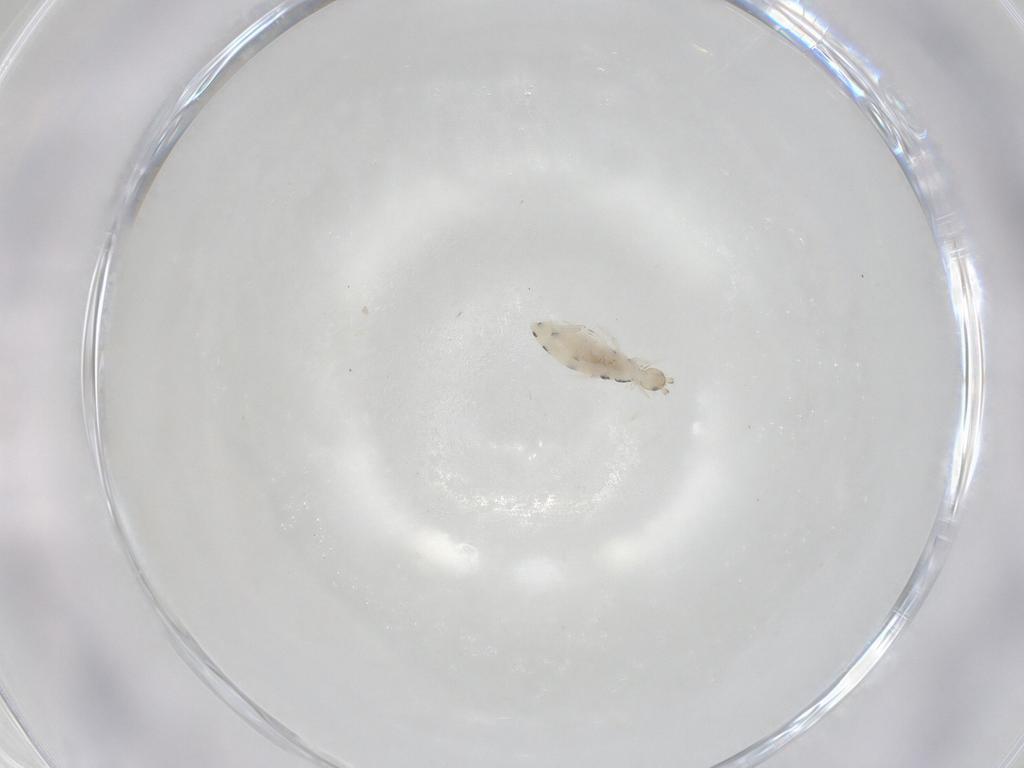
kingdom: Animalia
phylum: Arthropoda
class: Collembola
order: Entomobryomorpha
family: Entomobryidae
